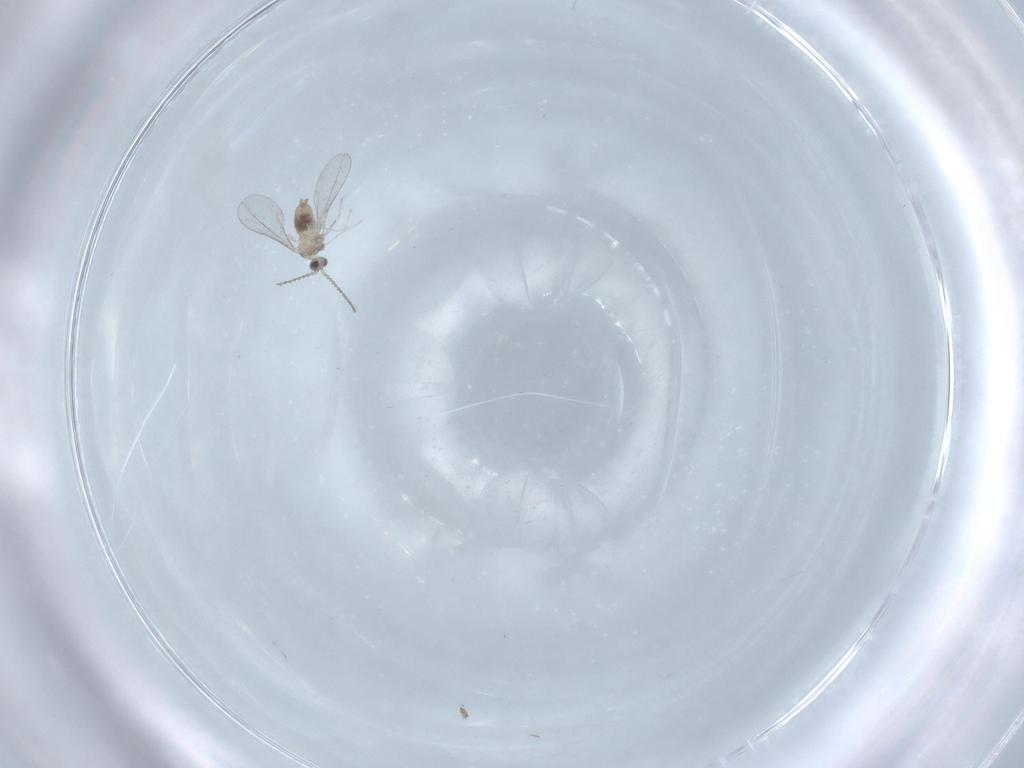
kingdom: Animalia
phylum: Arthropoda
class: Insecta
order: Diptera
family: Cecidomyiidae
